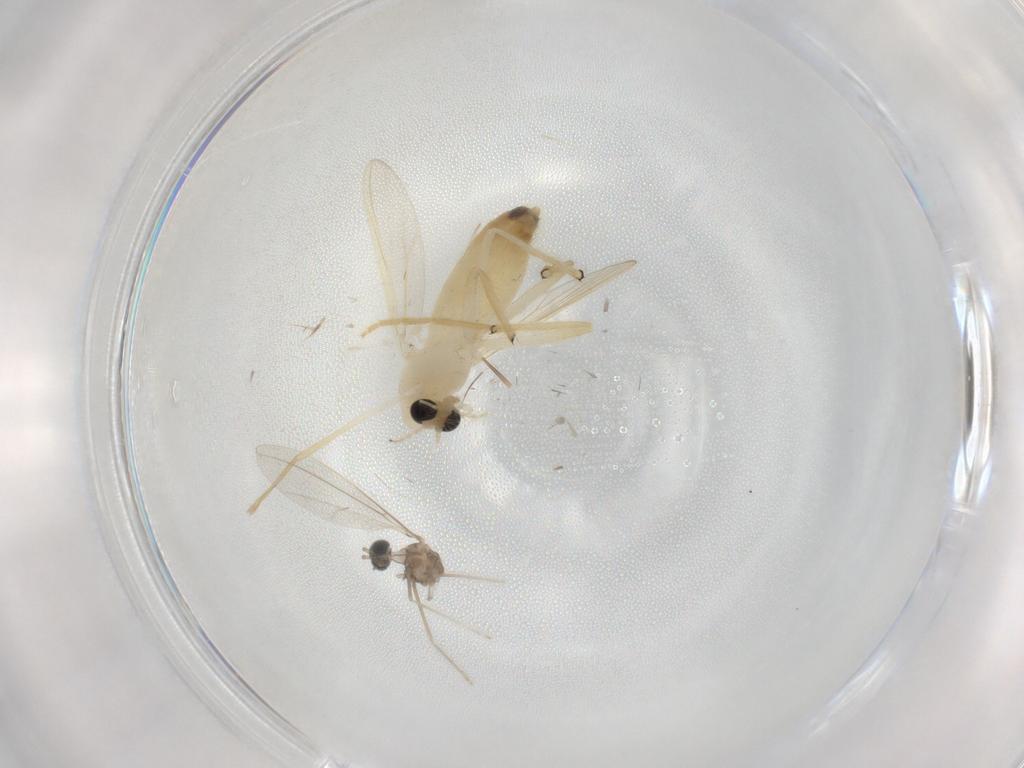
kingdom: Animalia
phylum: Arthropoda
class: Insecta
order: Diptera
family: Chironomidae
